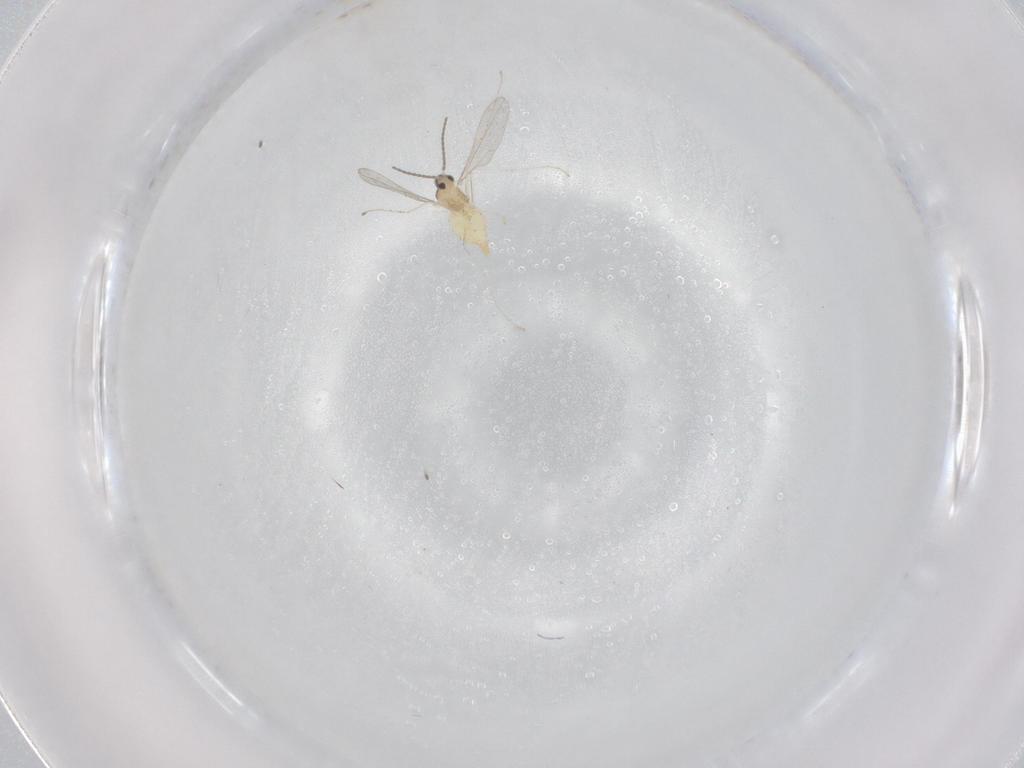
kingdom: Animalia
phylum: Arthropoda
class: Insecta
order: Diptera
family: Cecidomyiidae
